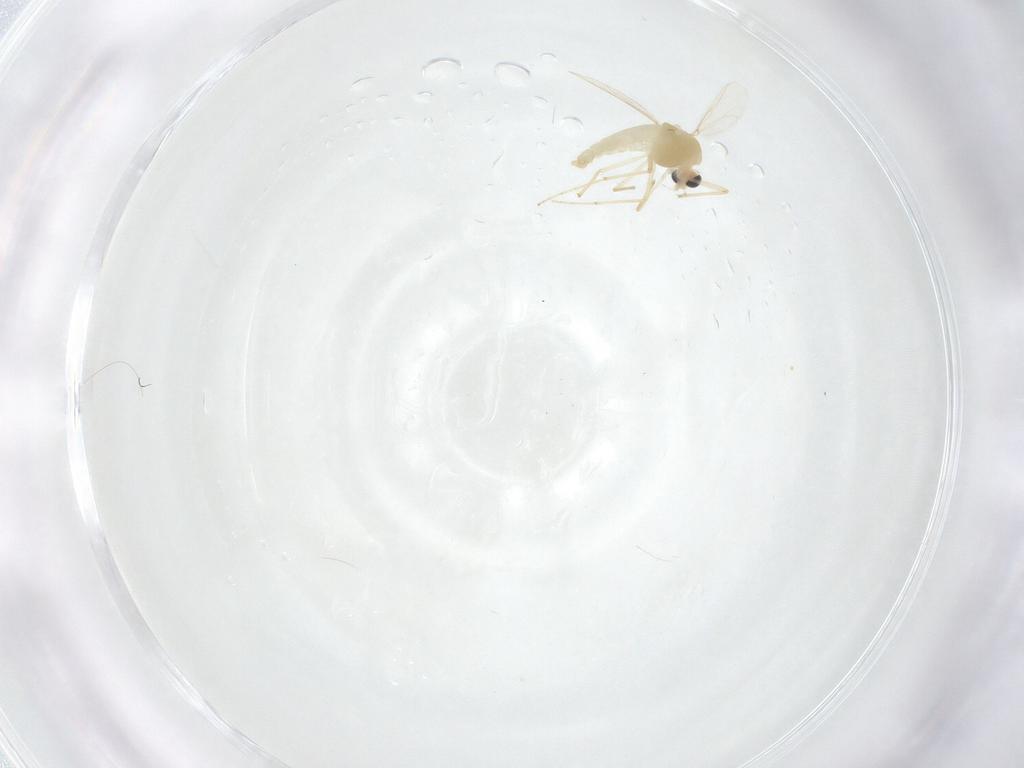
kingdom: Animalia
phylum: Arthropoda
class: Insecta
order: Diptera
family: Chironomidae
